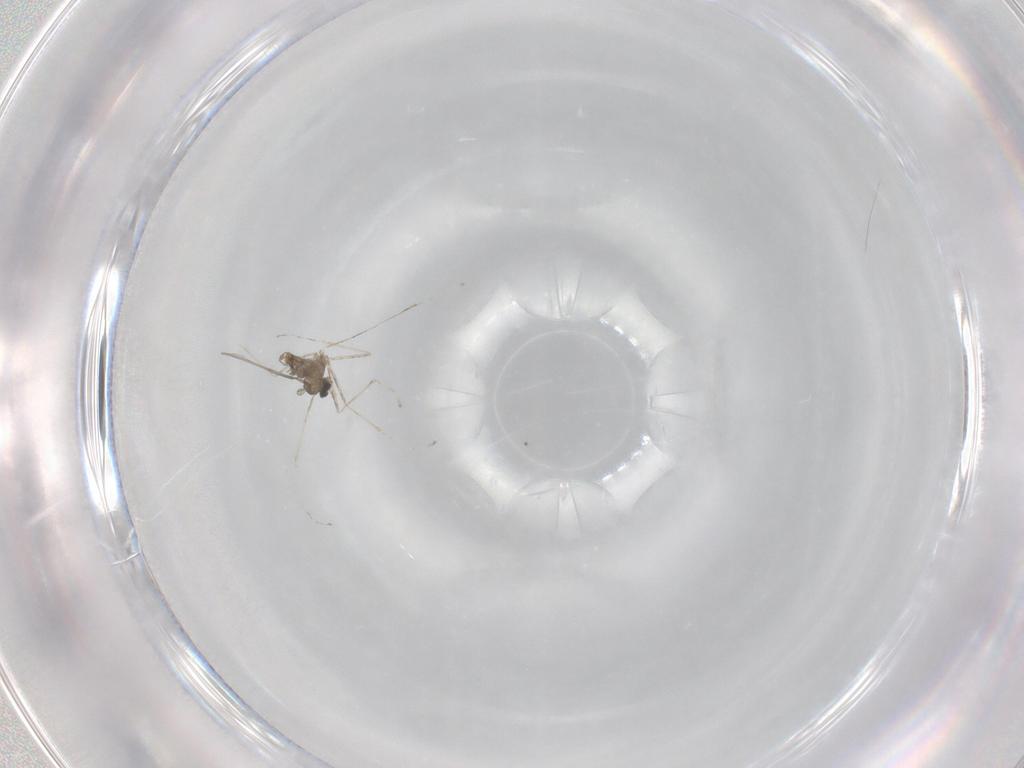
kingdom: Animalia
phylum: Arthropoda
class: Insecta
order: Diptera
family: Cecidomyiidae
